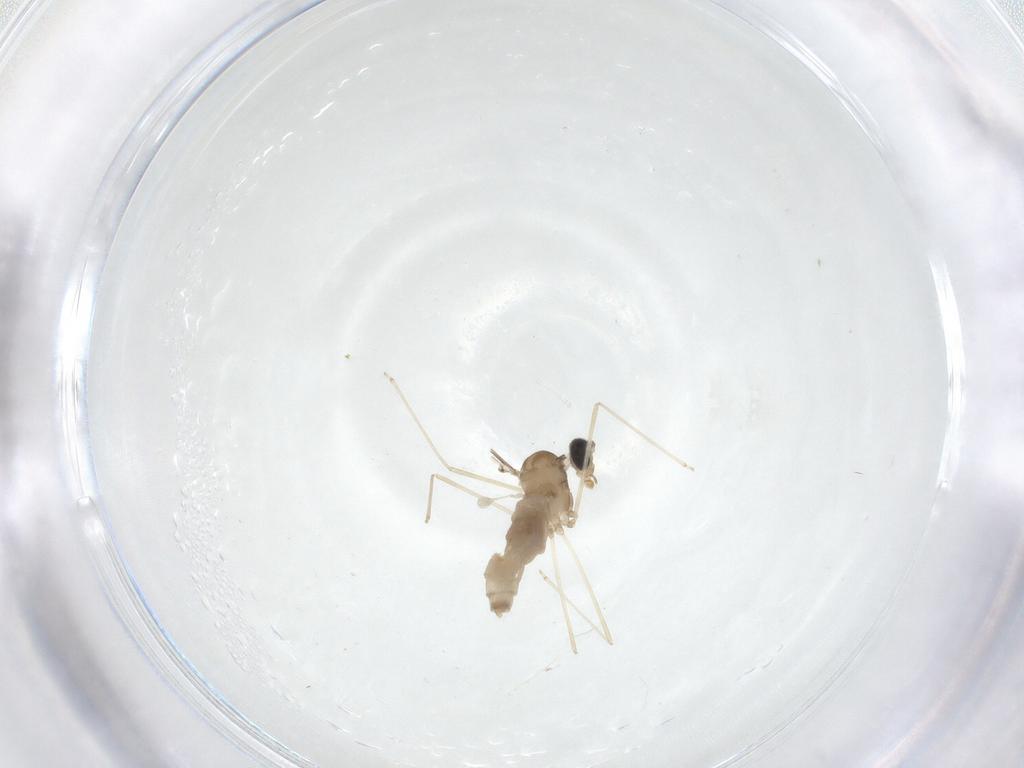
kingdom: Animalia
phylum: Arthropoda
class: Insecta
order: Diptera
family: Cecidomyiidae
